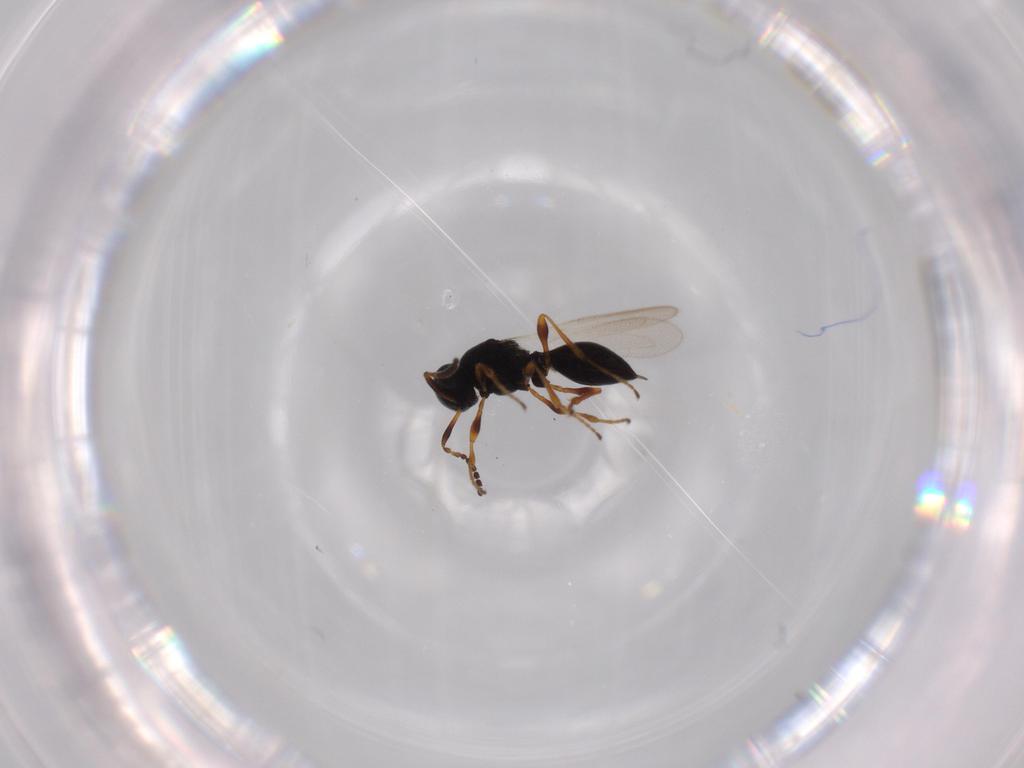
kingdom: Animalia
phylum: Arthropoda
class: Insecta
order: Hymenoptera
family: Platygastridae
